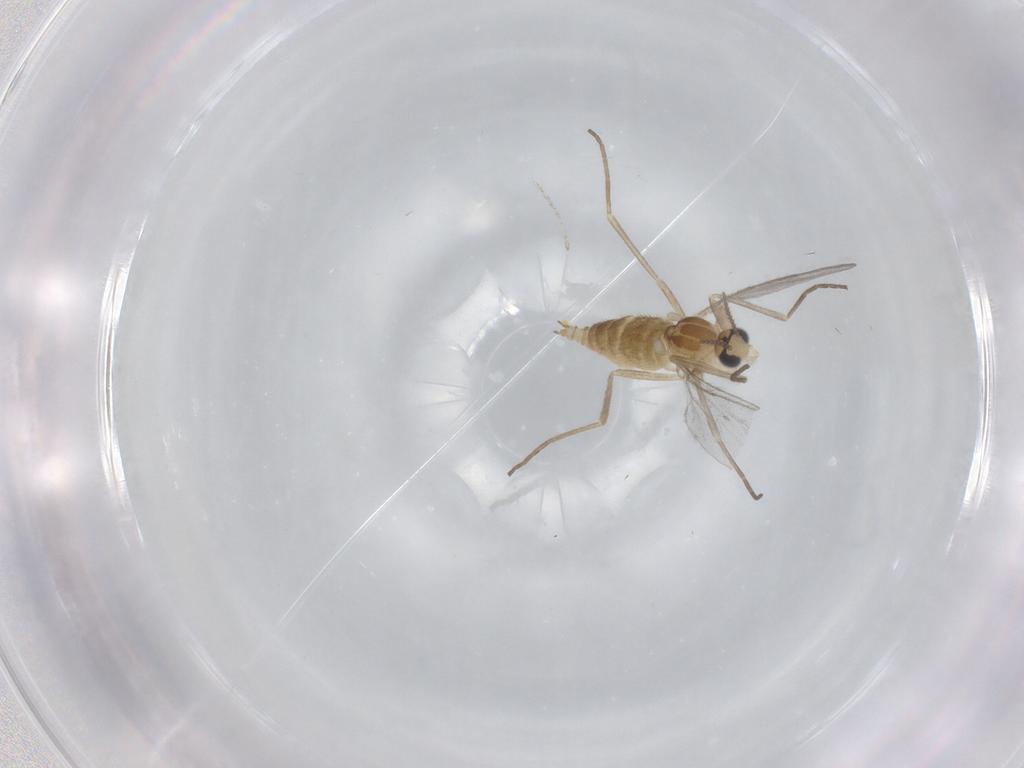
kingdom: Animalia
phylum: Arthropoda
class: Insecta
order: Diptera
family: Cecidomyiidae
